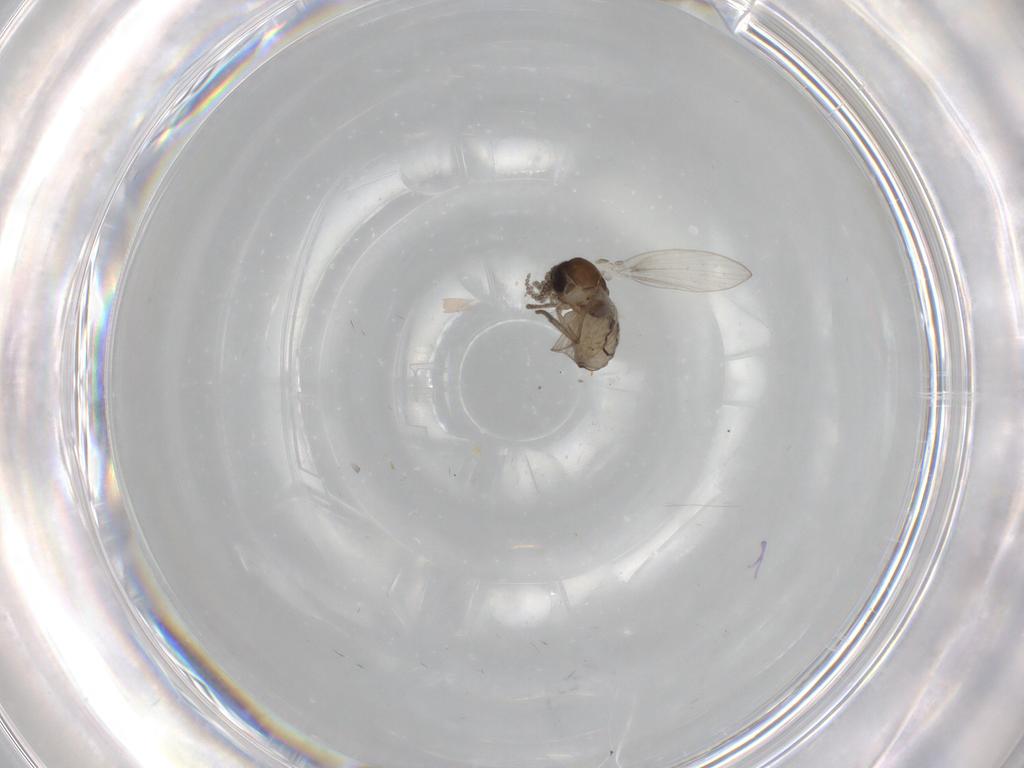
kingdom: Animalia
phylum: Arthropoda
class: Insecta
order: Diptera
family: Psychodidae
